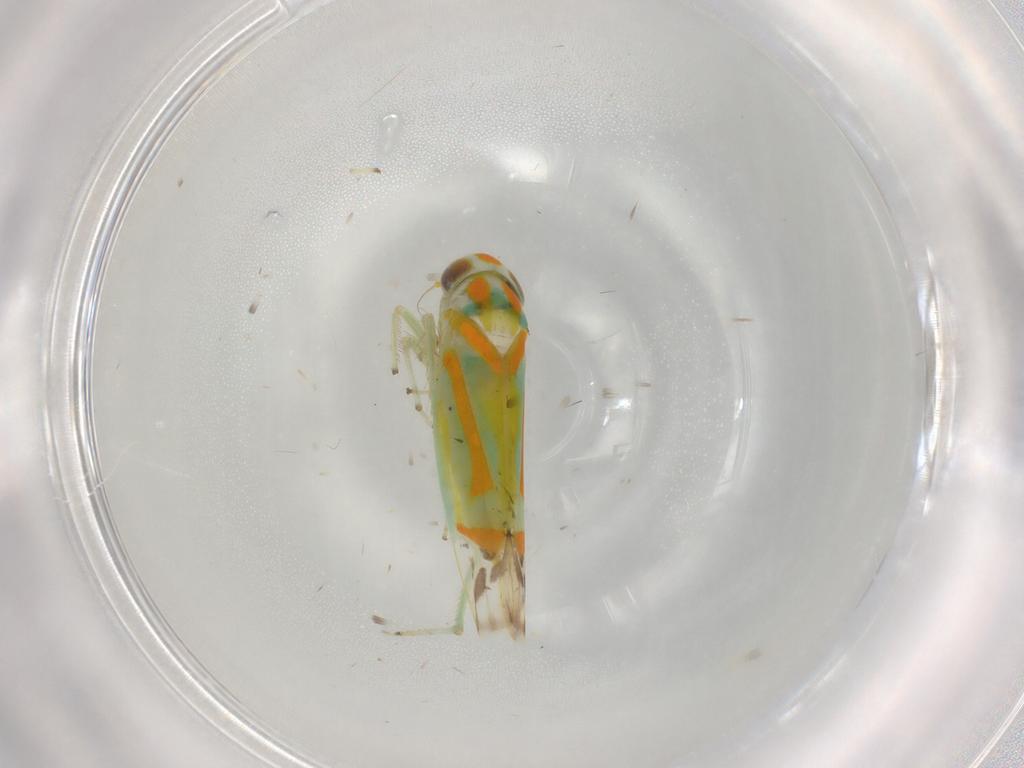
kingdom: Animalia
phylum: Arthropoda
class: Insecta
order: Hemiptera
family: Cicadellidae
